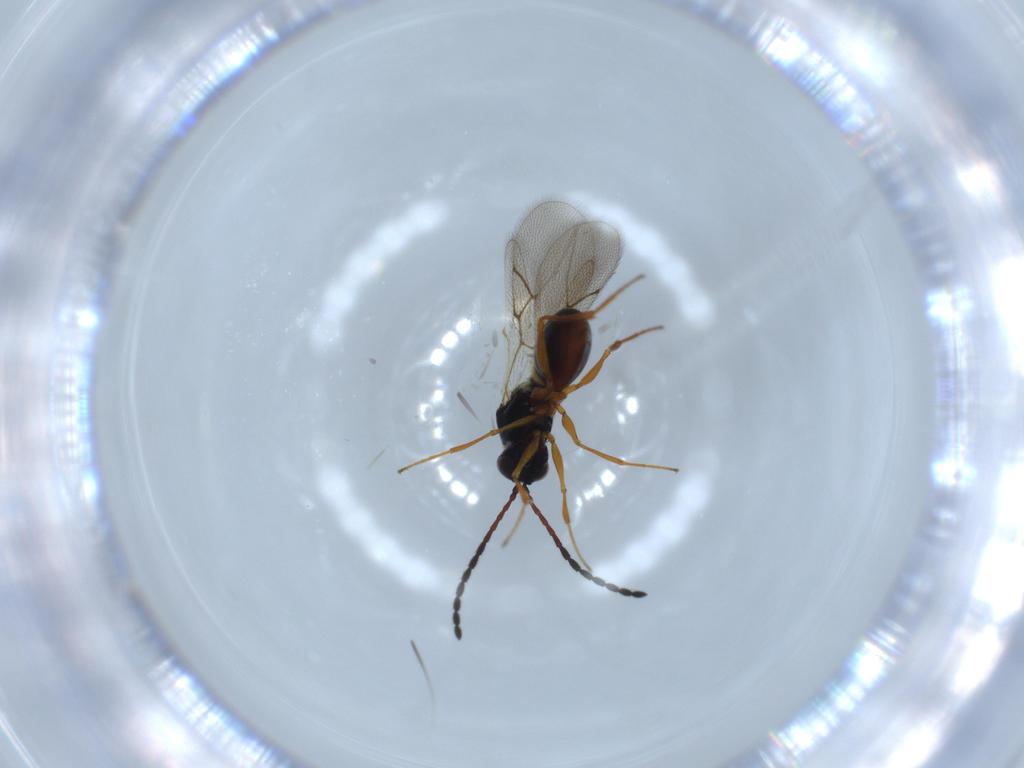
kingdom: Animalia
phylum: Arthropoda
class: Insecta
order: Hymenoptera
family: Figitidae
